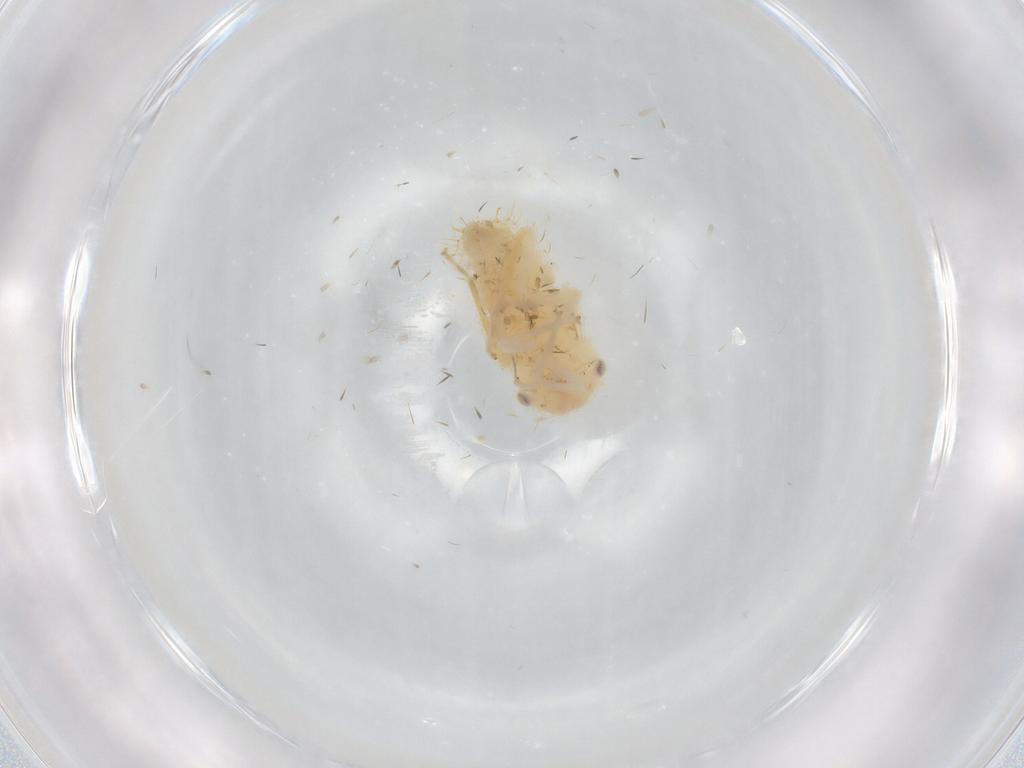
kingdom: Animalia
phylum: Arthropoda
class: Insecta
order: Hemiptera
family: Cicadellidae
